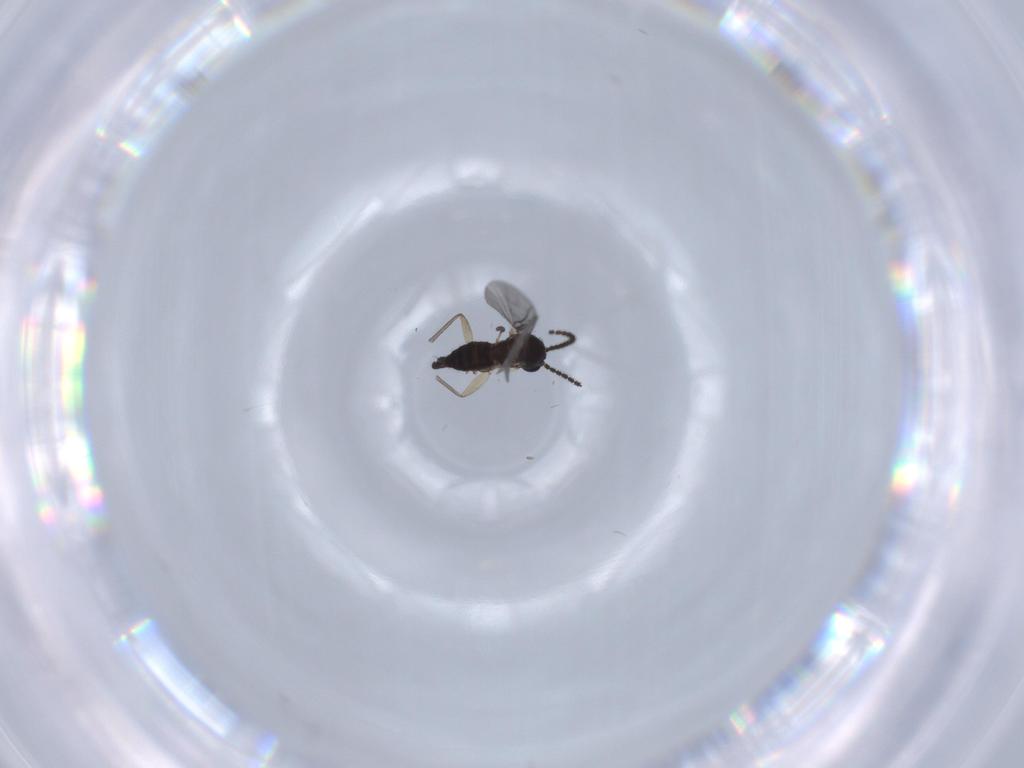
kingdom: Animalia
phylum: Arthropoda
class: Insecta
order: Diptera
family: Sciaridae
